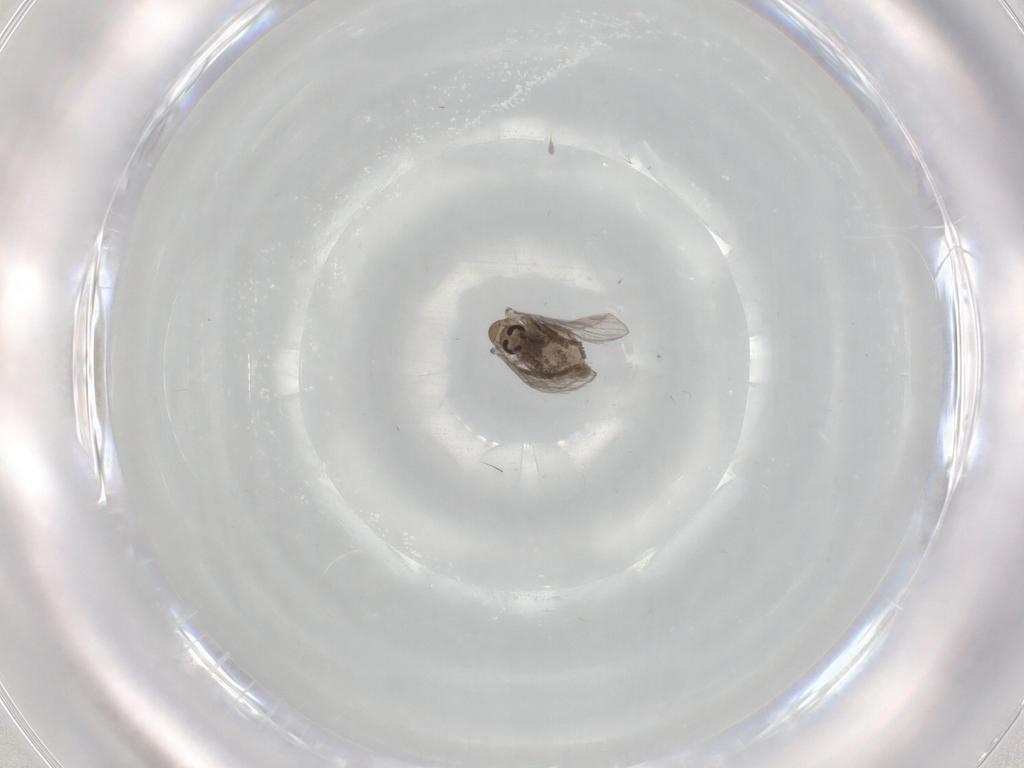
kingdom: Animalia
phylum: Arthropoda
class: Insecta
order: Diptera
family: Psychodidae
